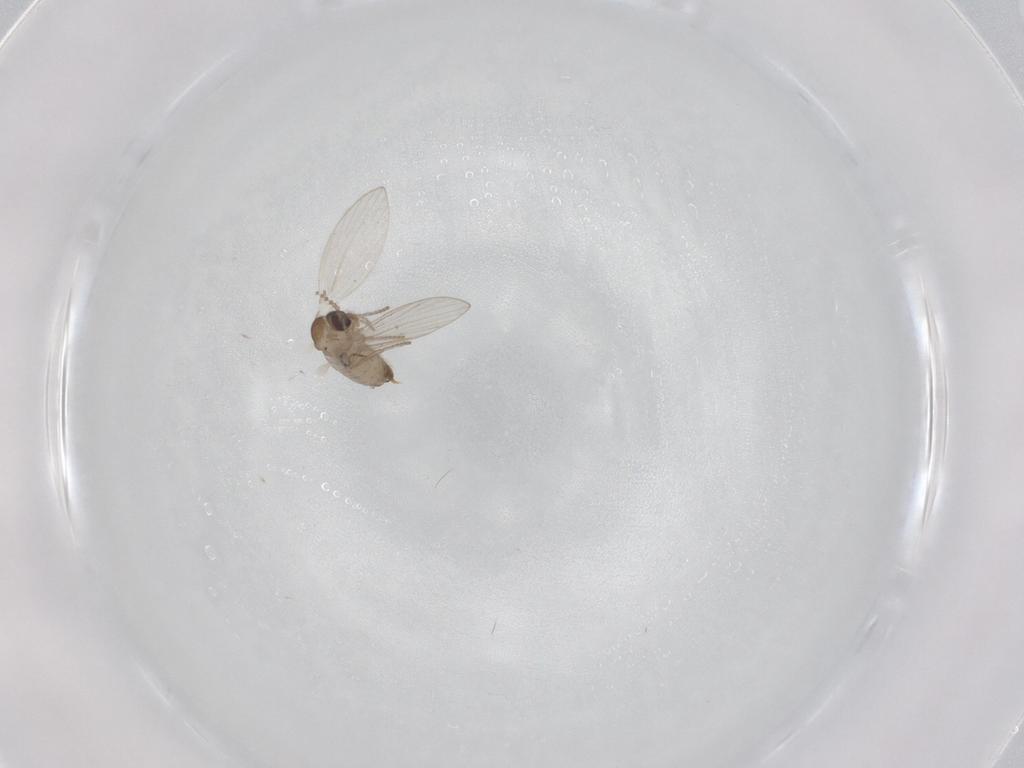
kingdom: Animalia
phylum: Arthropoda
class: Insecta
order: Diptera
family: Psychodidae
